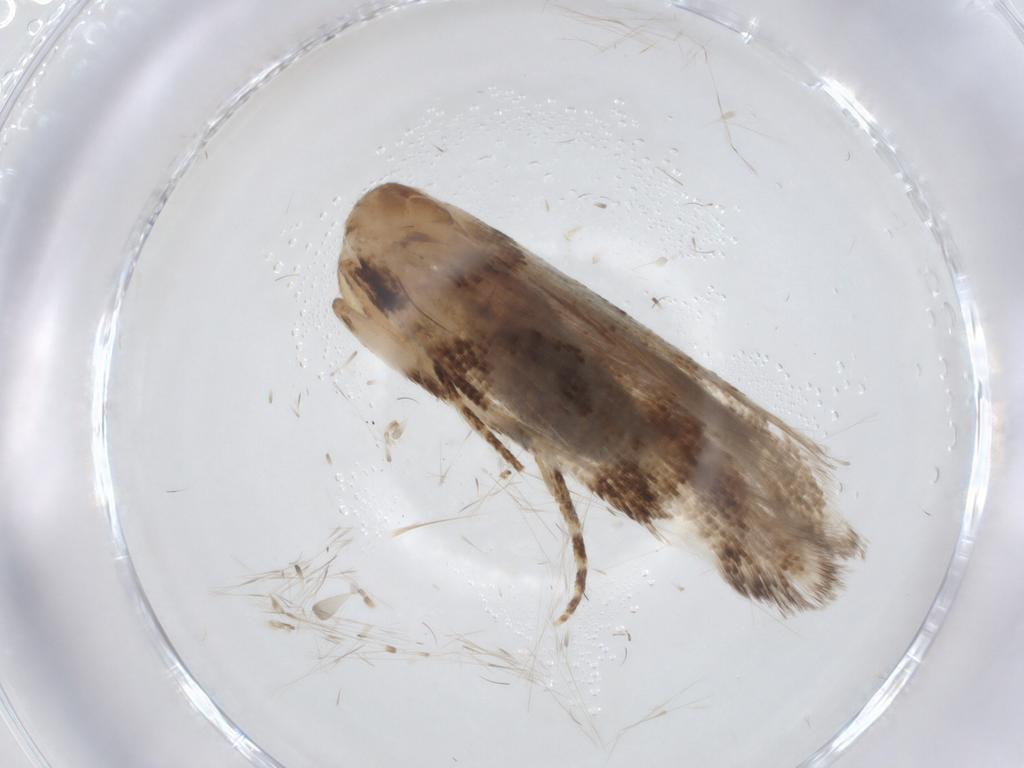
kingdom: Animalia
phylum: Arthropoda
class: Insecta
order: Lepidoptera
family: Gelechiidae
